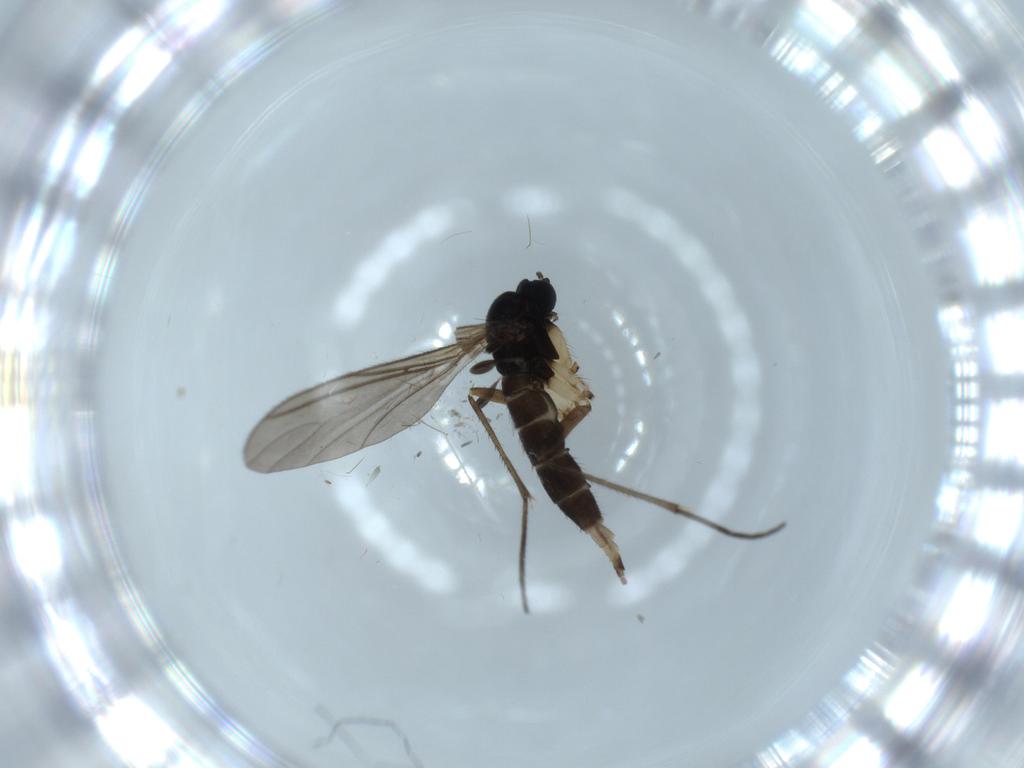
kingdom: Animalia
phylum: Arthropoda
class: Insecta
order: Diptera
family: Sciaridae
